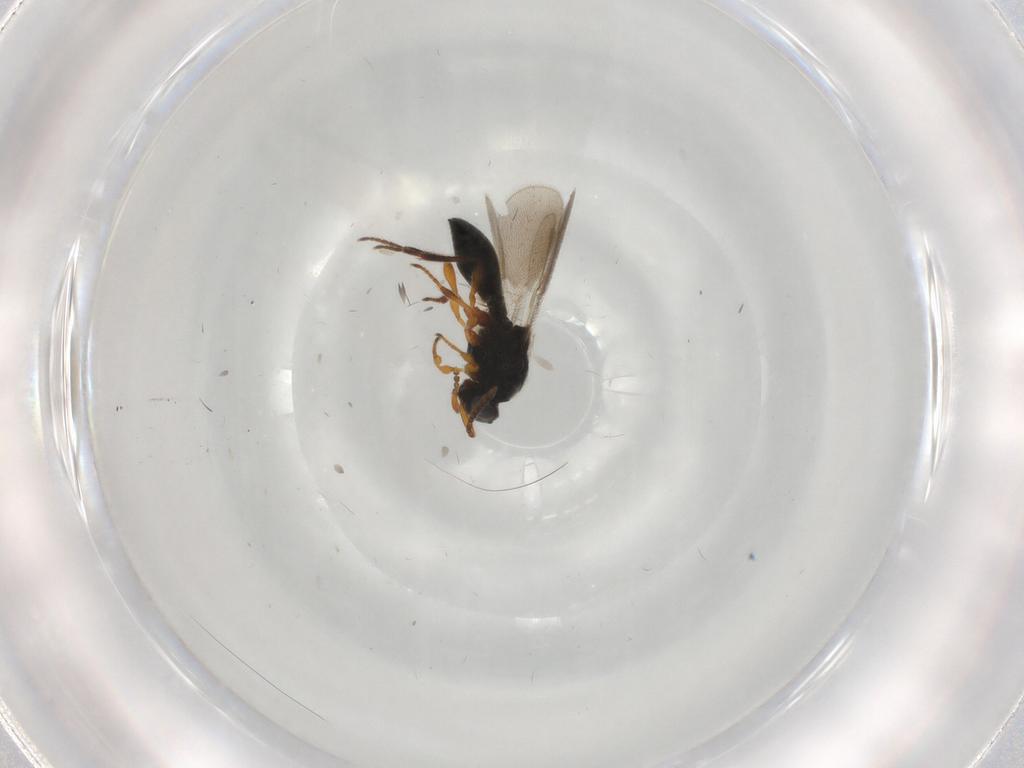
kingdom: Animalia
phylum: Arthropoda
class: Insecta
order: Hymenoptera
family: Platygastridae
